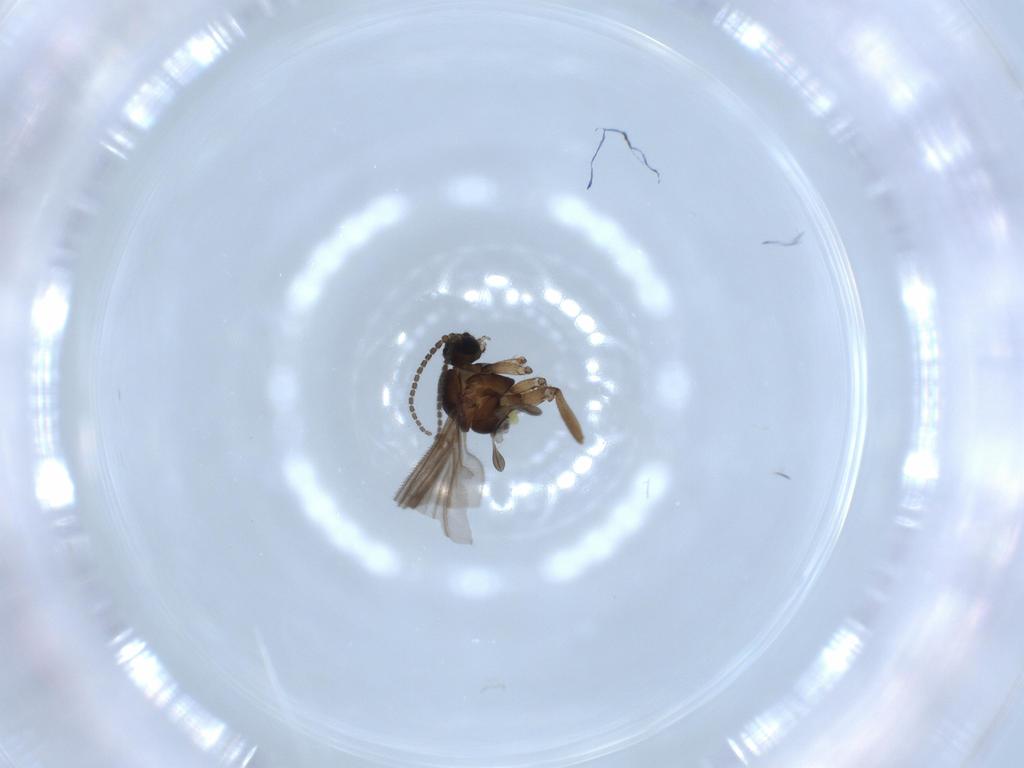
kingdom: Animalia
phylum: Arthropoda
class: Insecta
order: Diptera
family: Sciaridae
